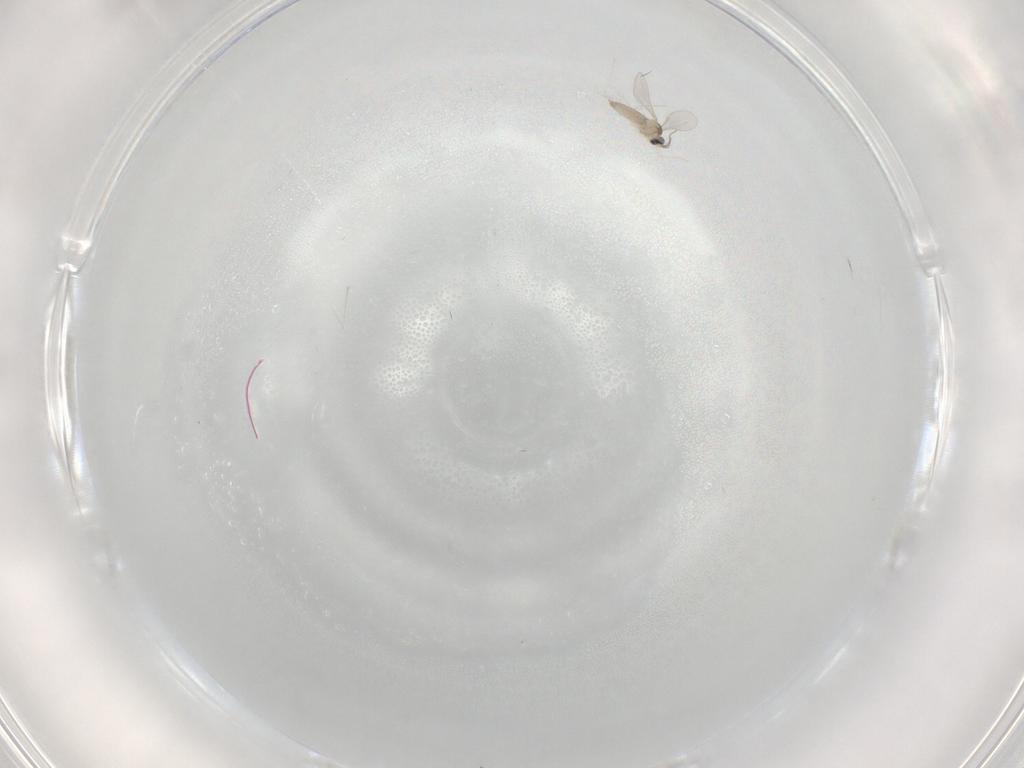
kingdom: Animalia
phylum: Arthropoda
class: Insecta
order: Diptera
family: Cecidomyiidae
